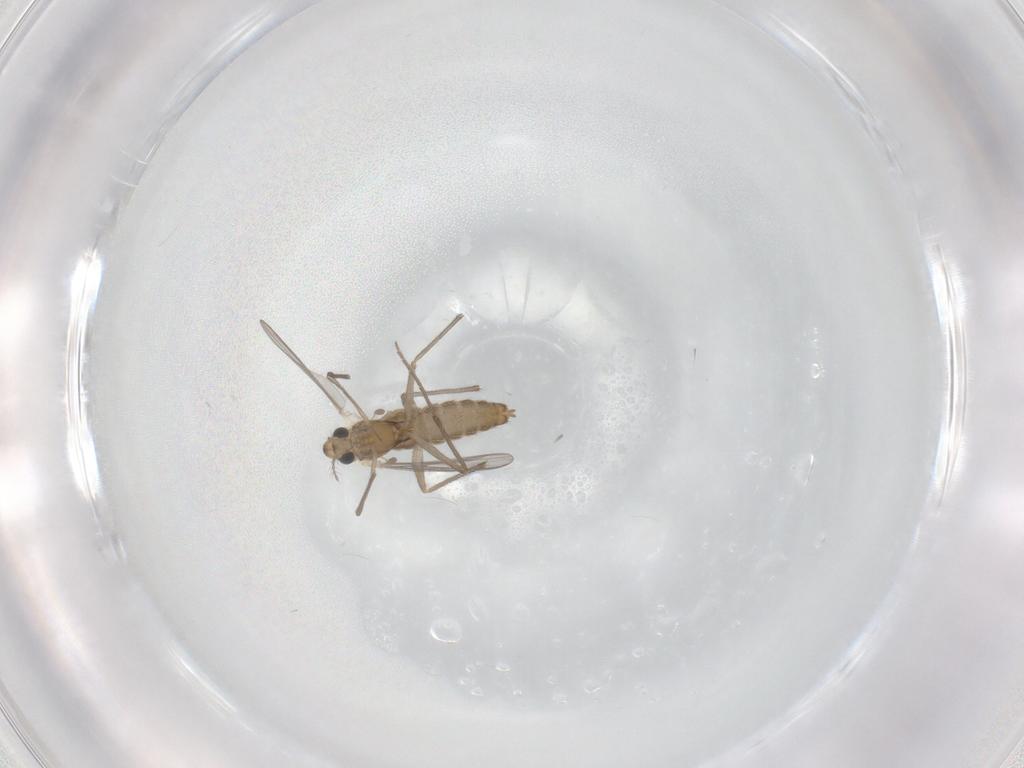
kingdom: Animalia
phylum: Arthropoda
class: Insecta
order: Diptera
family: Chironomidae
